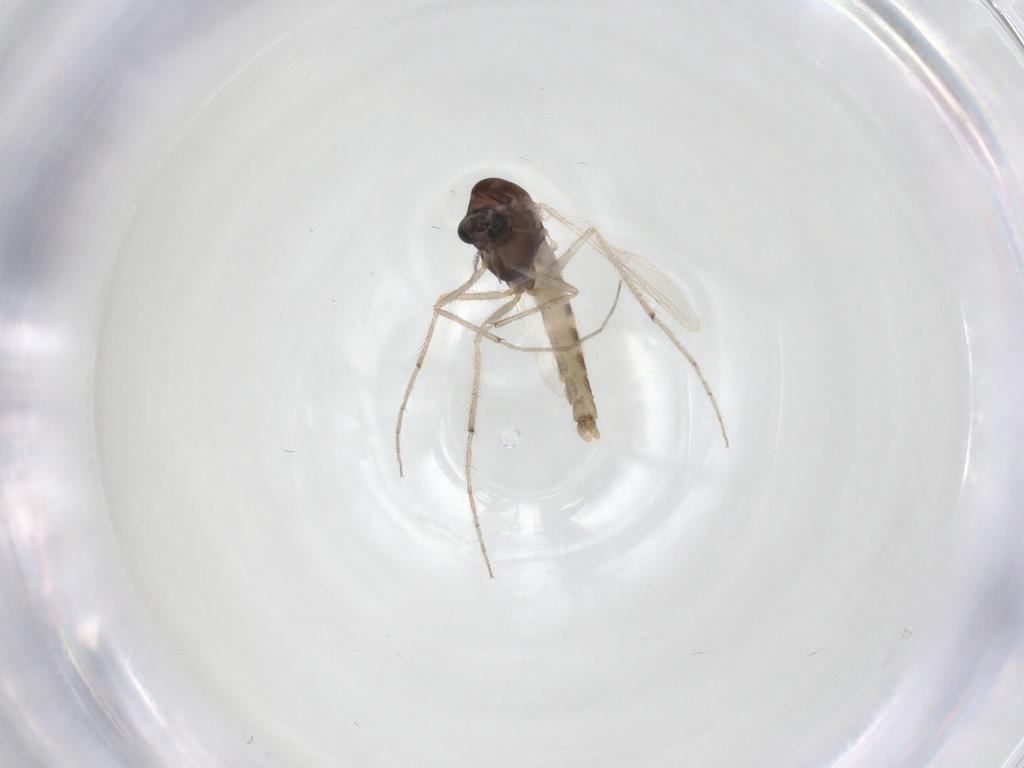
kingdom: Animalia
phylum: Arthropoda
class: Insecta
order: Diptera
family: Chironomidae
